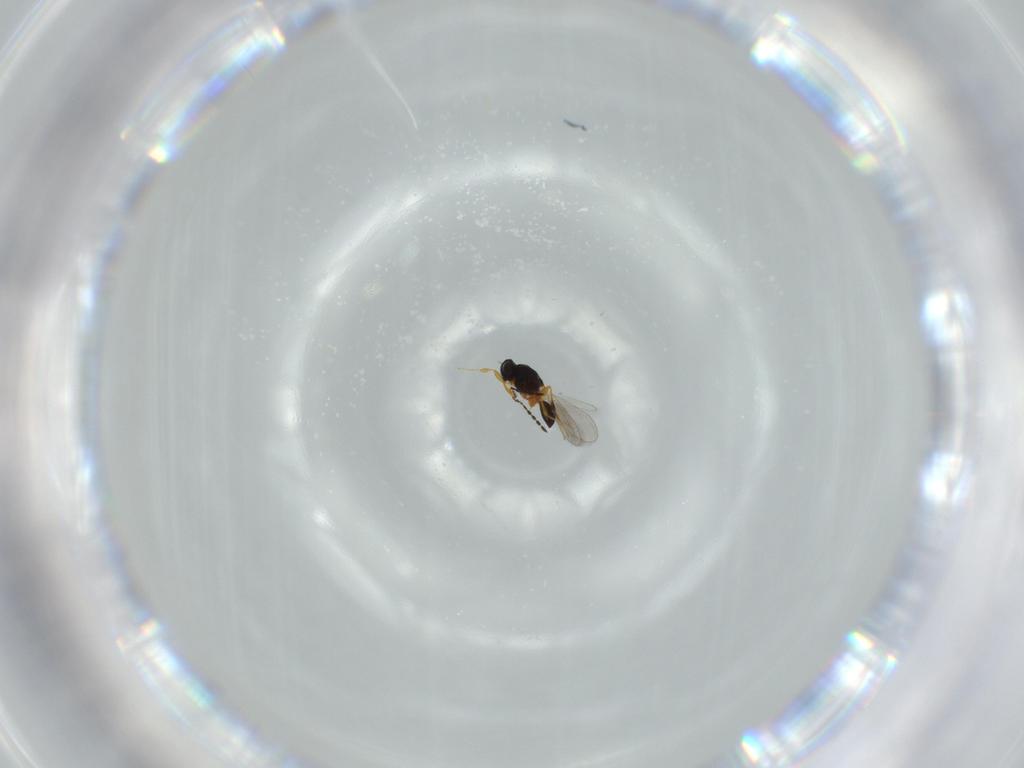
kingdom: Animalia
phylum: Arthropoda
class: Insecta
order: Hymenoptera
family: Platygastridae
